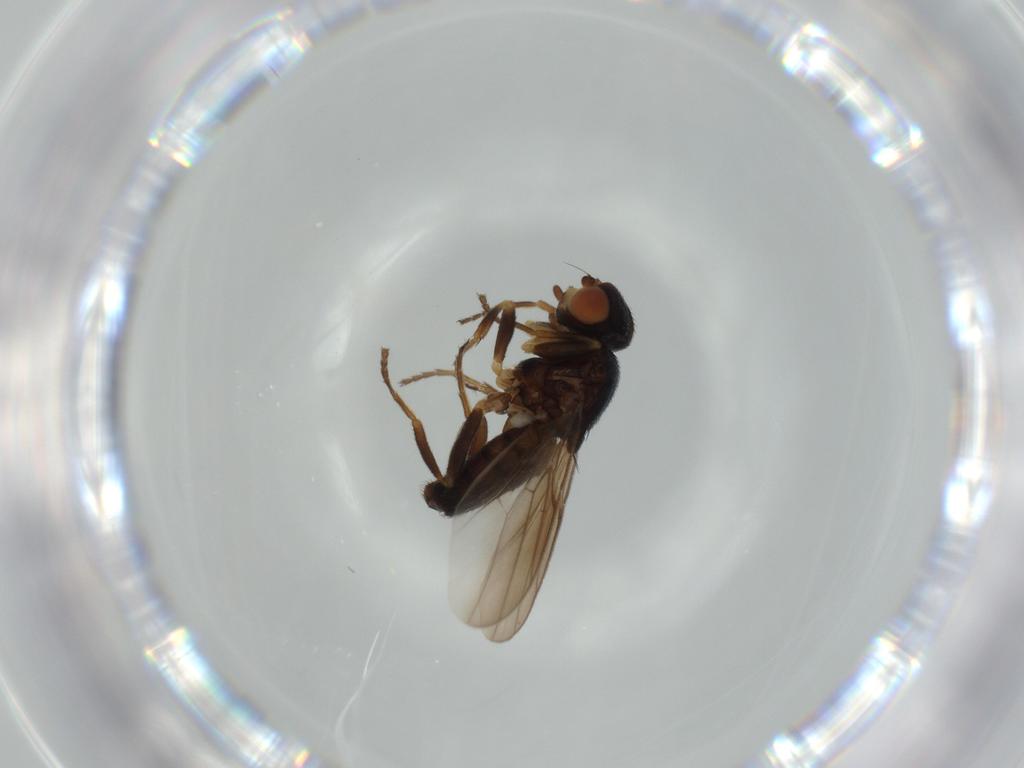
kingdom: Animalia
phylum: Arthropoda
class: Insecta
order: Diptera
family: Chloropidae
